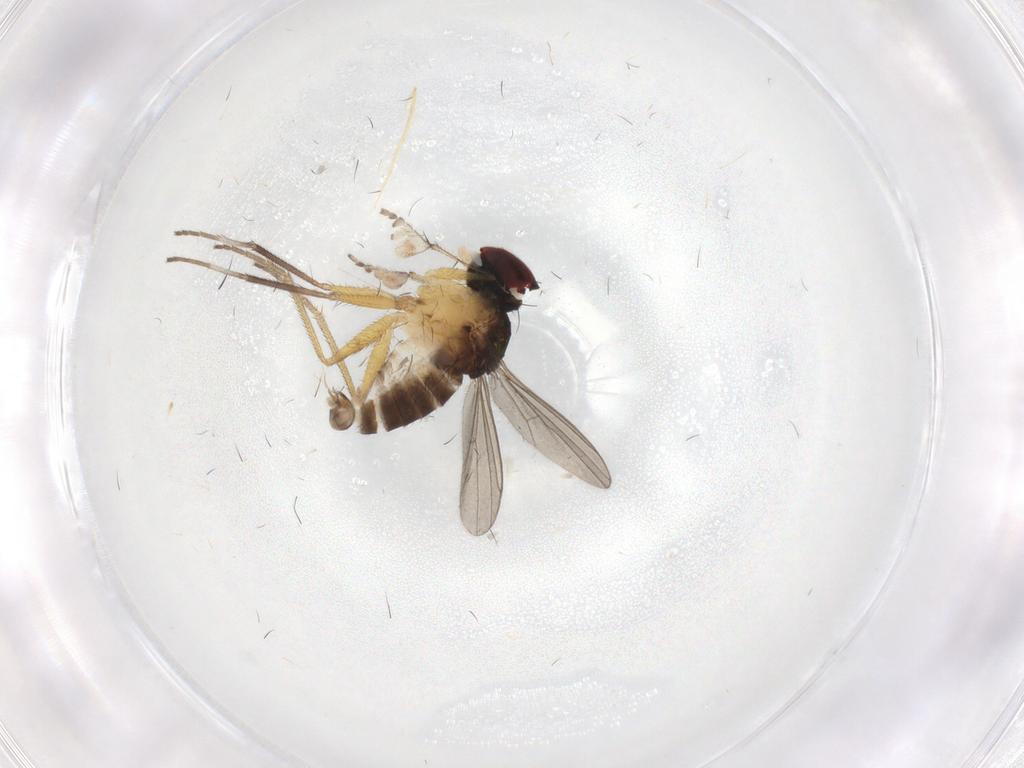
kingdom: Animalia
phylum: Arthropoda
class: Insecta
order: Diptera
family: Dolichopodidae
